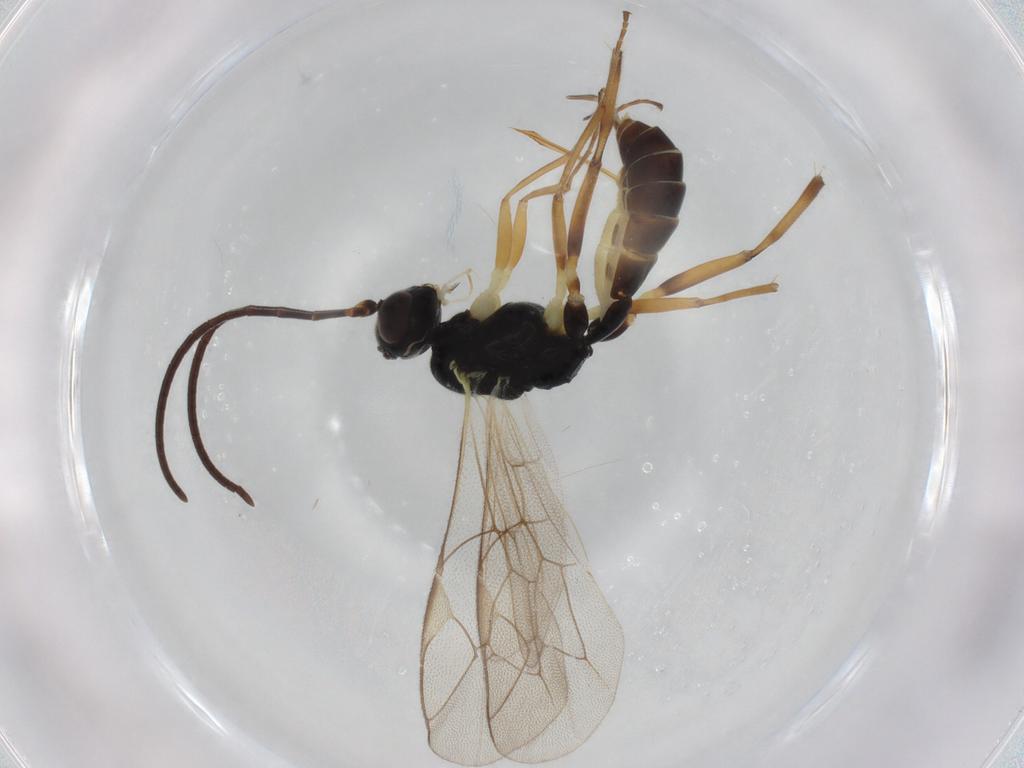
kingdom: Animalia
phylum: Arthropoda
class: Insecta
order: Hymenoptera
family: Ichneumonidae
